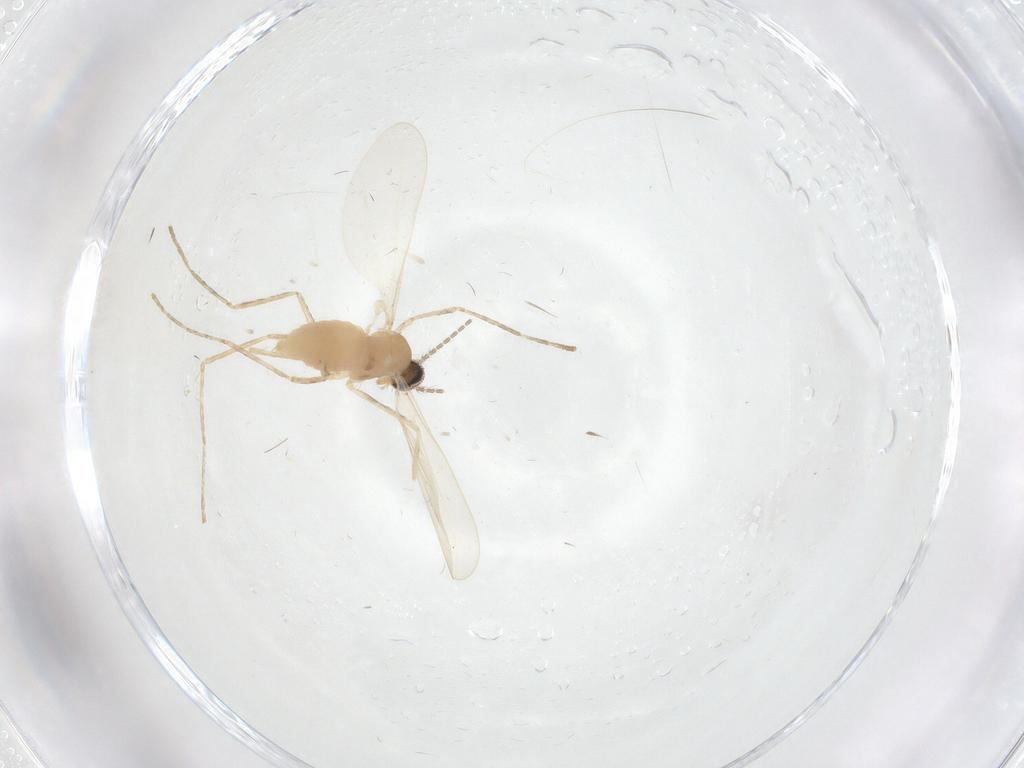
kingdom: Animalia
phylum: Arthropoda
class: Insecta
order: Diptera
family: Cecidomyiidae
